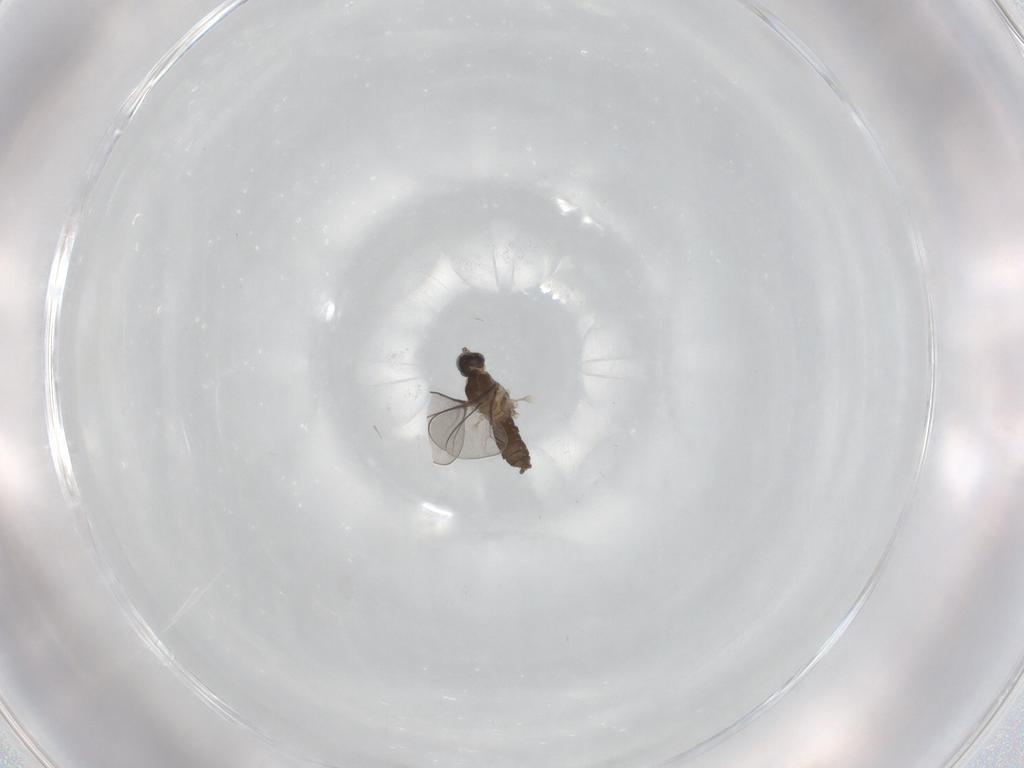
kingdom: Animalia
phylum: Arthropoda
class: Insecta
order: Diptera
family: Cecidomyiidae
